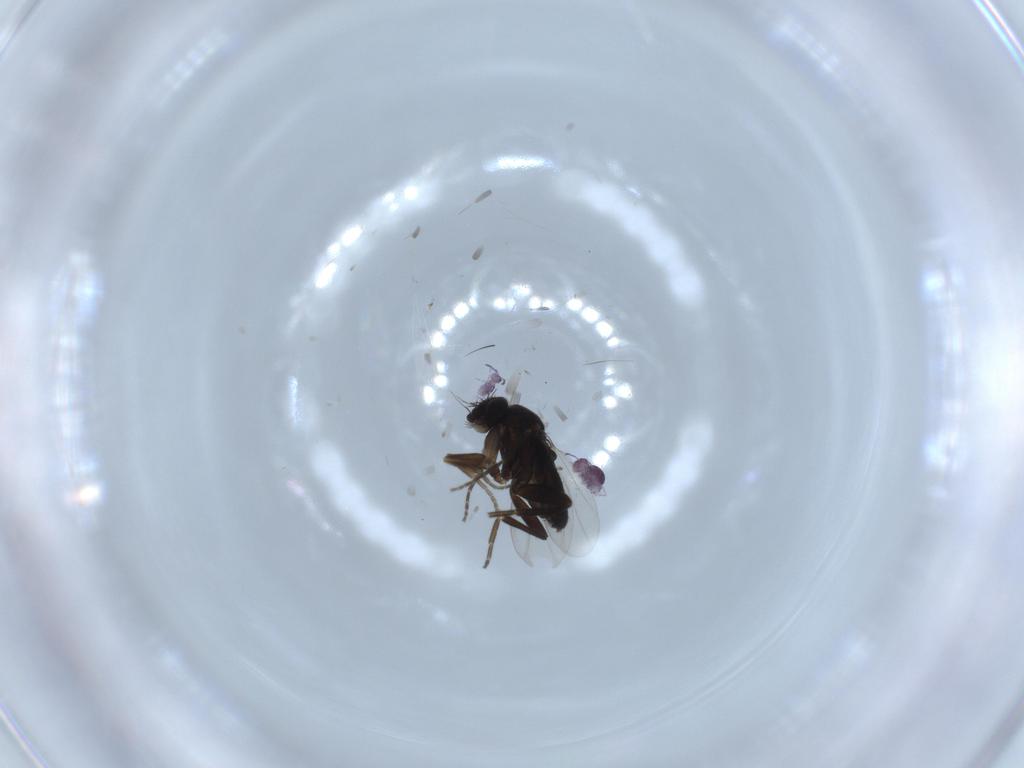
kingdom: Animalia
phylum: Arthropoda
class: Collembola
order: Symphypleona
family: Sminthurididae
